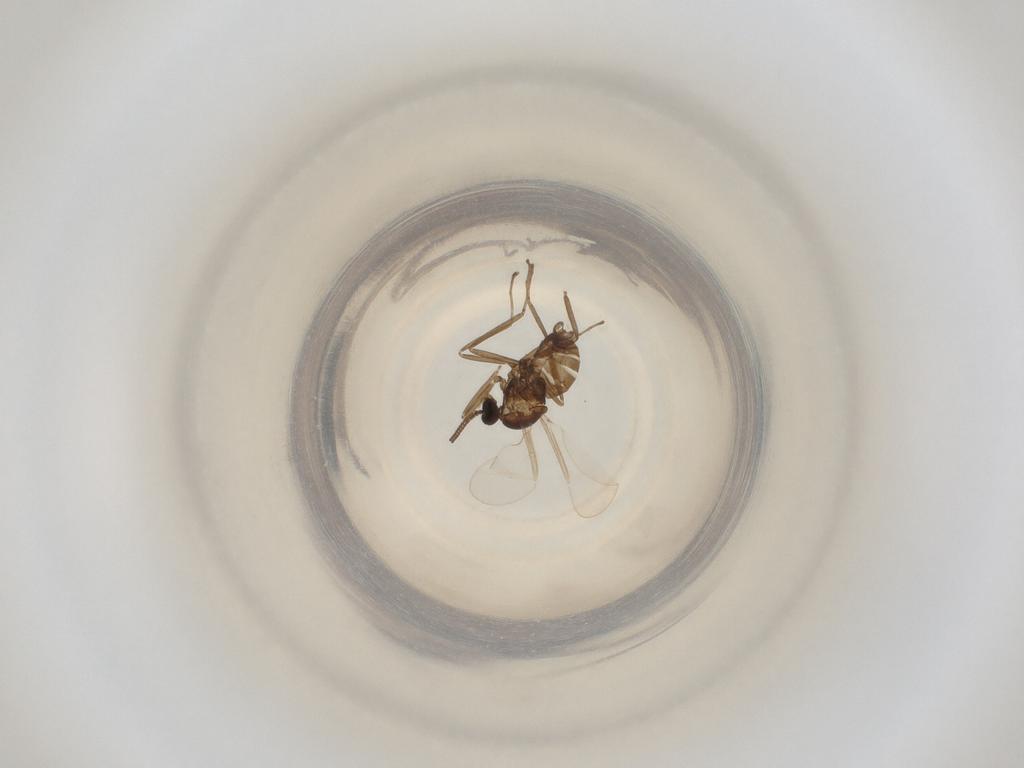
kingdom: Animalia
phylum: Arthropoda
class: Insecta
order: Diptera
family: Cecidomyiidae
